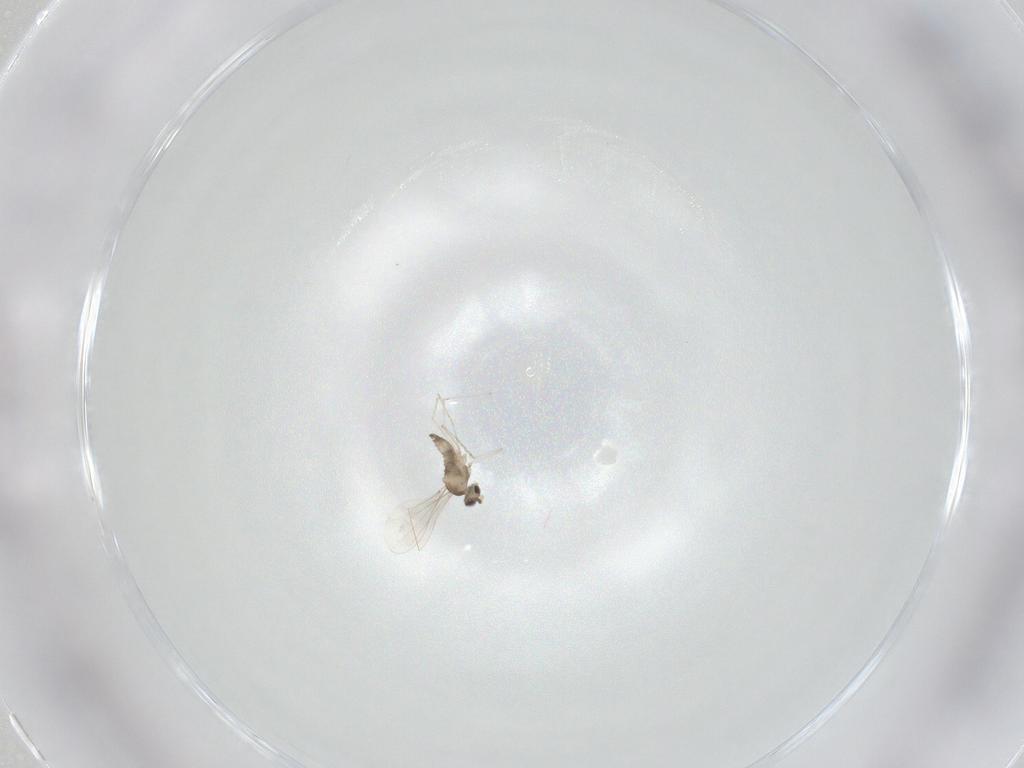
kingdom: Animalia
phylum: Arthropoda
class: Insecta
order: Diptera
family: Cecidomyiidae
